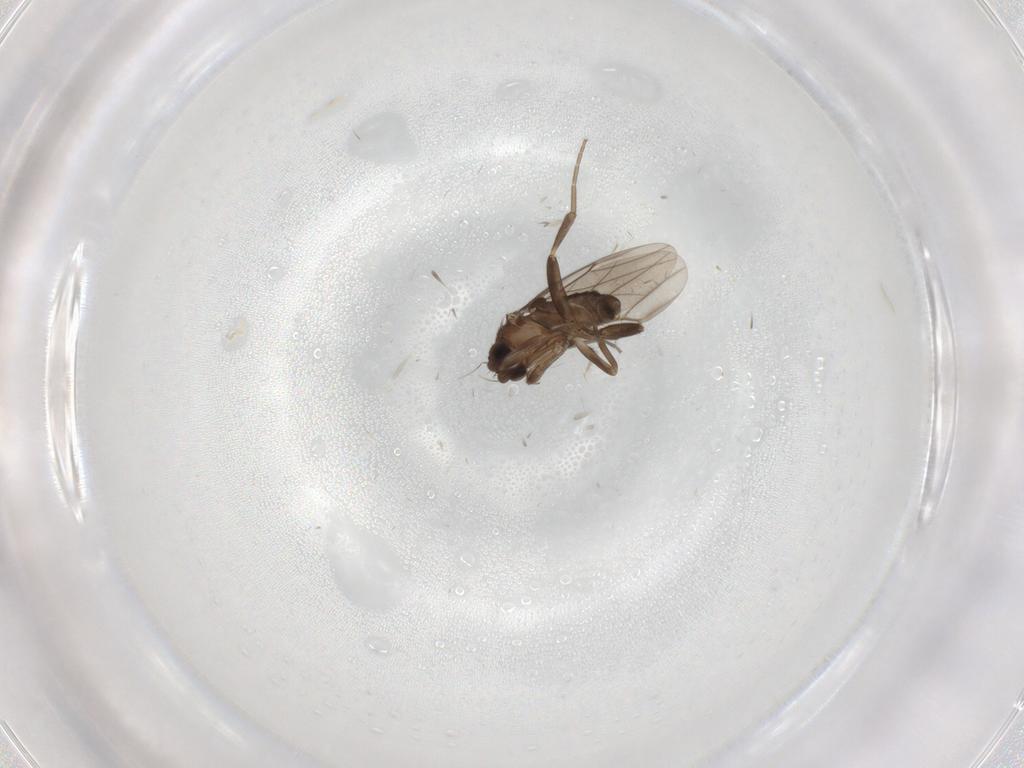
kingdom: Animalia
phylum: Arthropoda
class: Insecta
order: Diptera
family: Phoridae
